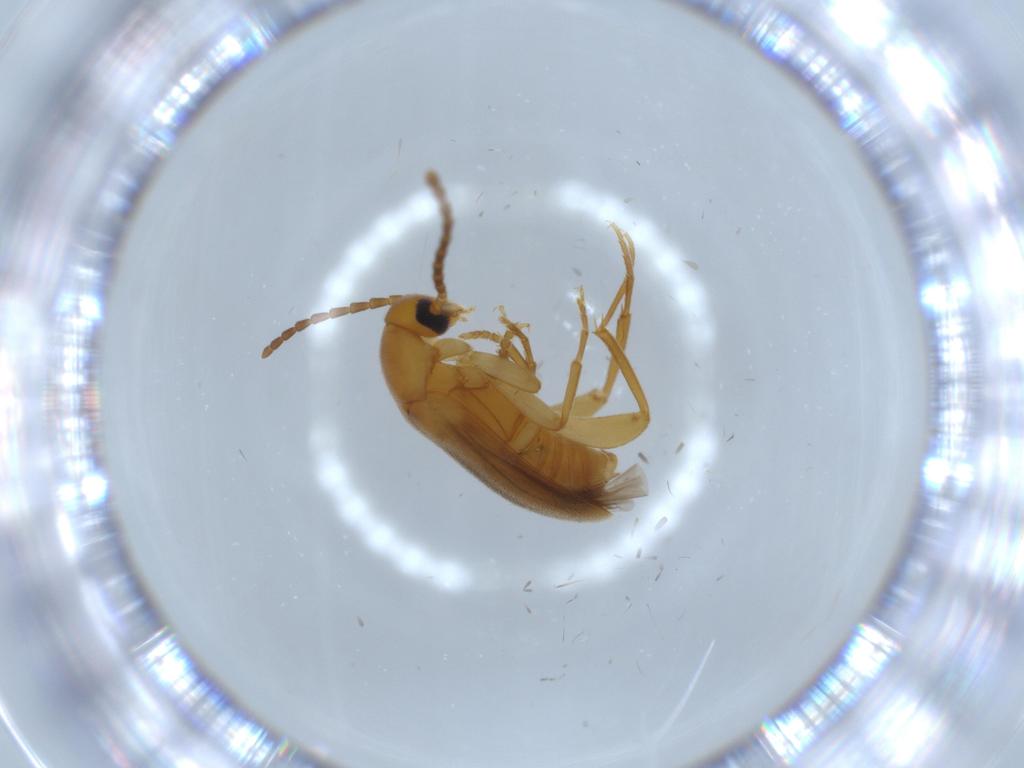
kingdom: Animalia
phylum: Arthropoda
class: Insecta
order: Coleoptera
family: Scraptiidae
